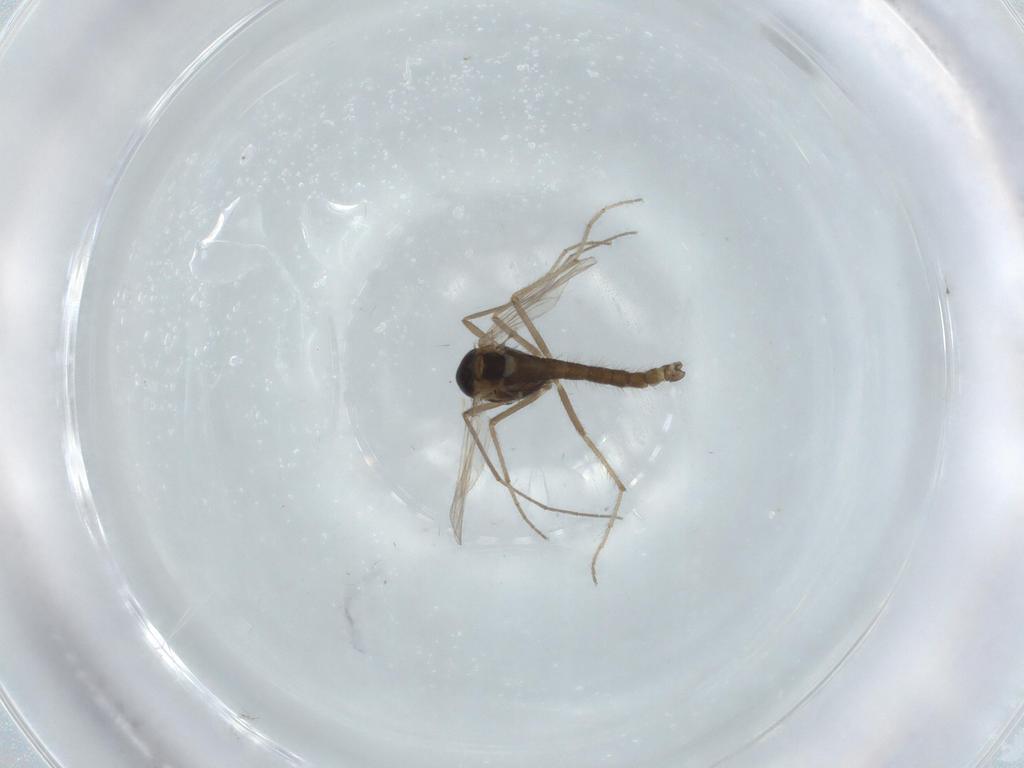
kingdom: Animalia
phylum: Arthropoda
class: Insecta
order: Diptera
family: Chironomidae
